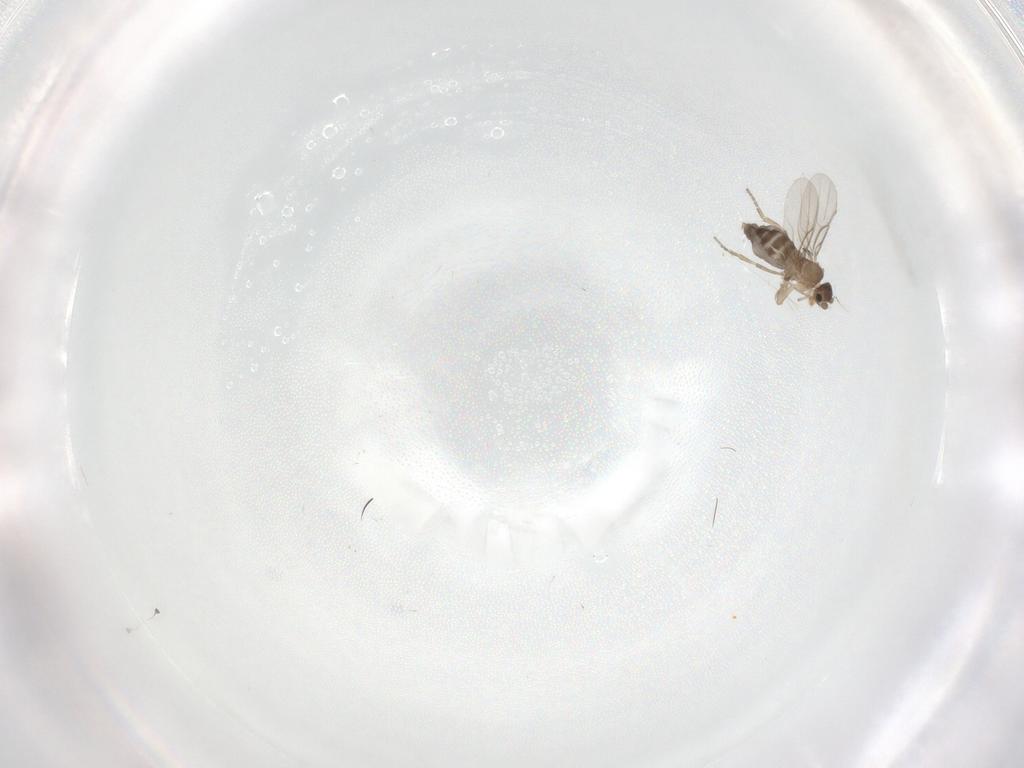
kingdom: Animalia
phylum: Arthropoda
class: Insecta
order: Diptera
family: Phoridae
